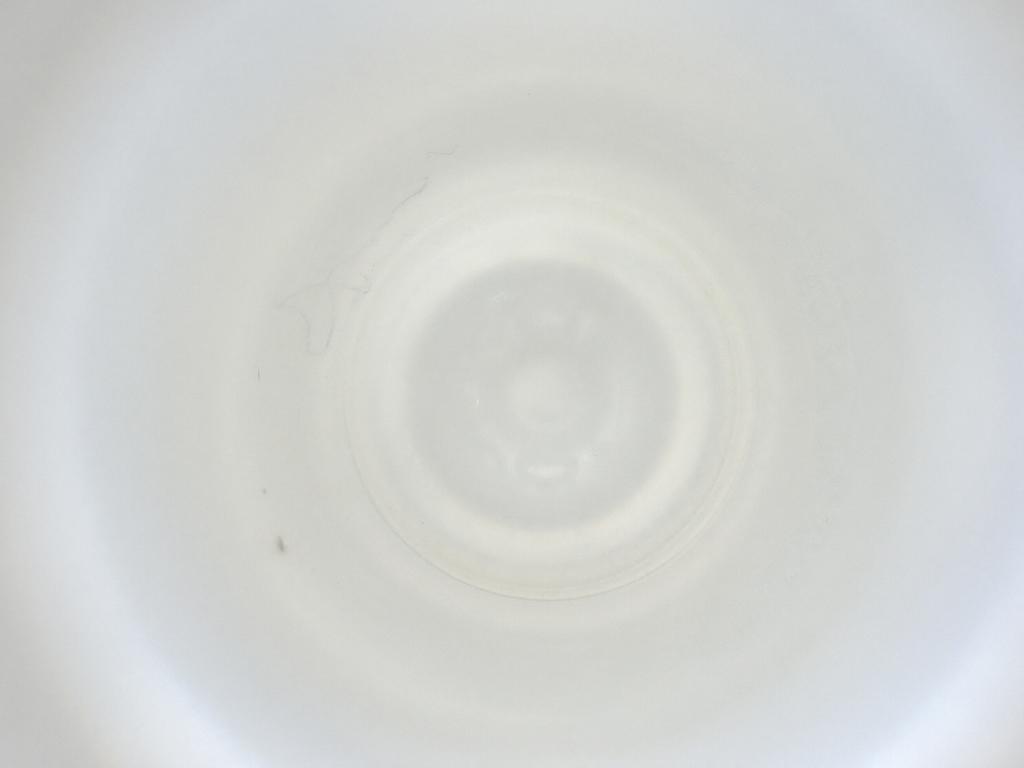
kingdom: Animalia
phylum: Arthropoda
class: Insecta
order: Diptera
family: Cecidomyiidae
